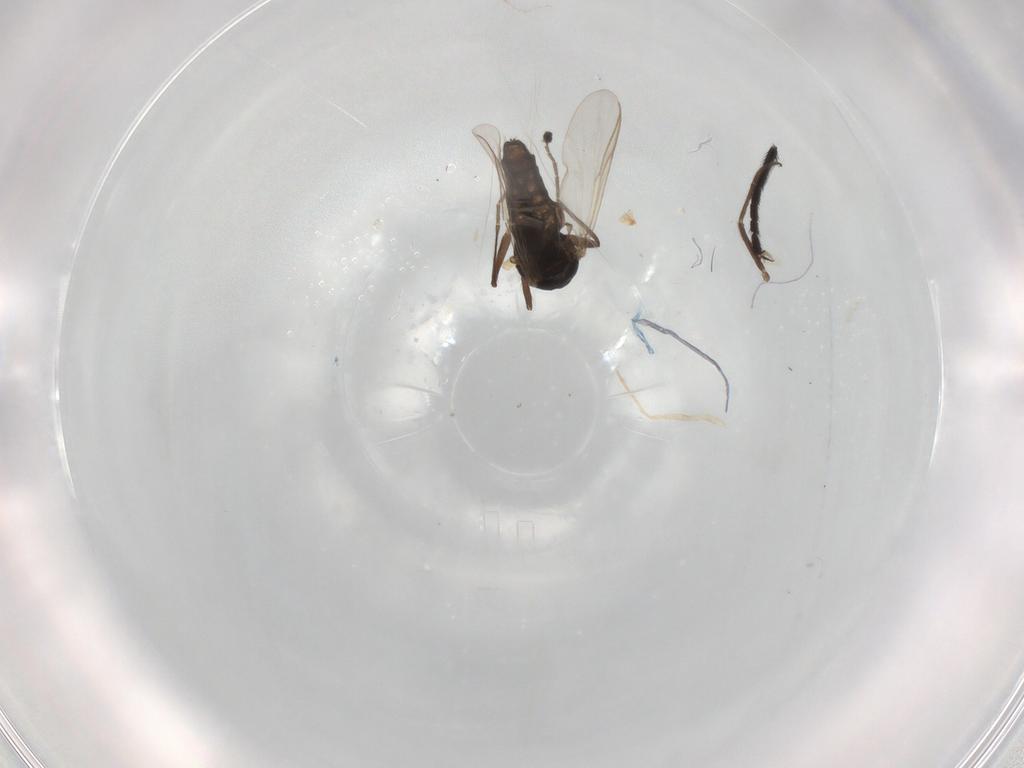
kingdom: Animalia
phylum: Arthropoda
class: Insecta
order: Diptera
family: Chironomidae
